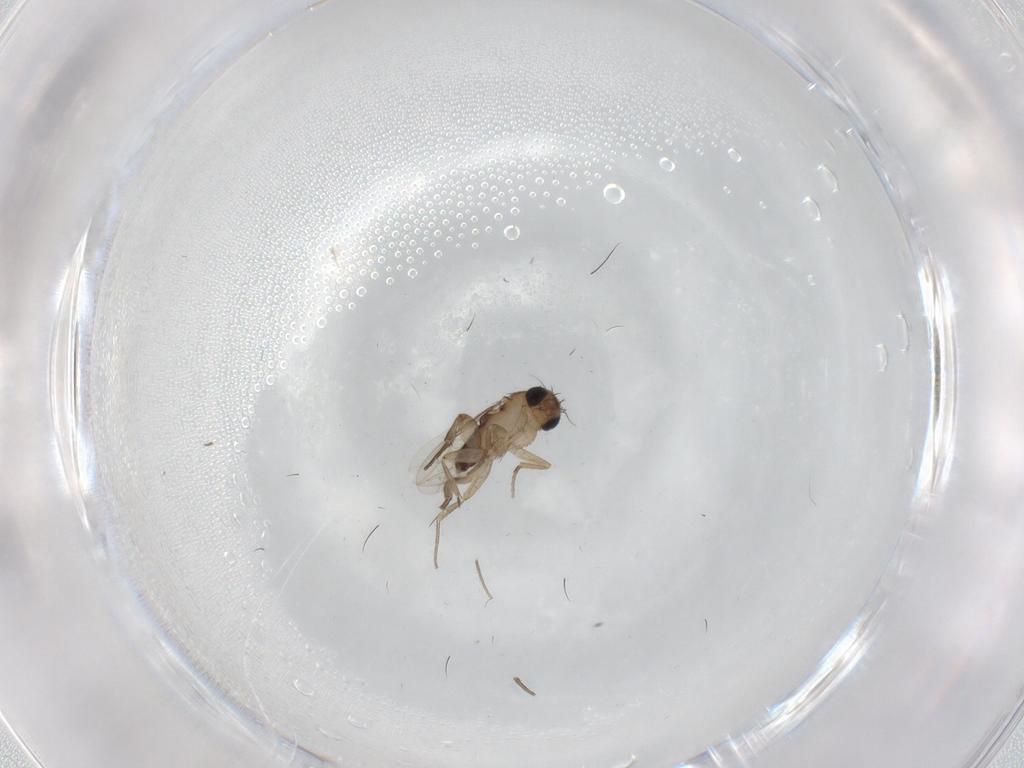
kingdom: Animalia
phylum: Arthropoda
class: Insecta
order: Diptera
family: Phoridae
